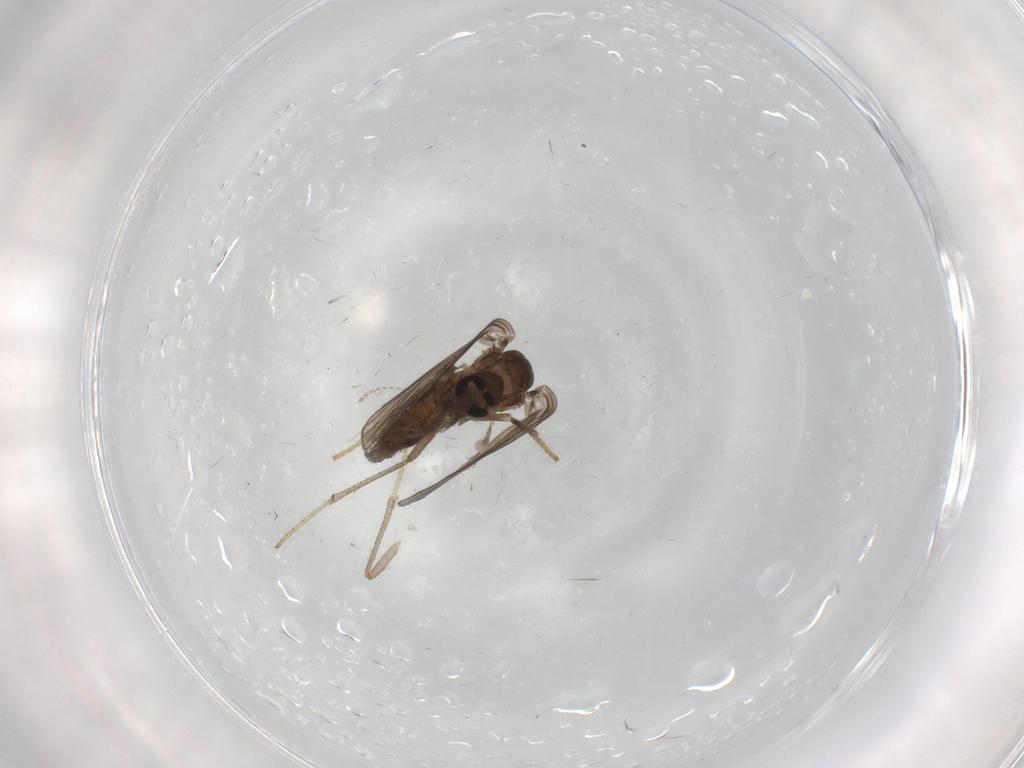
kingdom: Animalia
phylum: Arthropoda
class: Insecta
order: Diptera
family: Psychodidae
